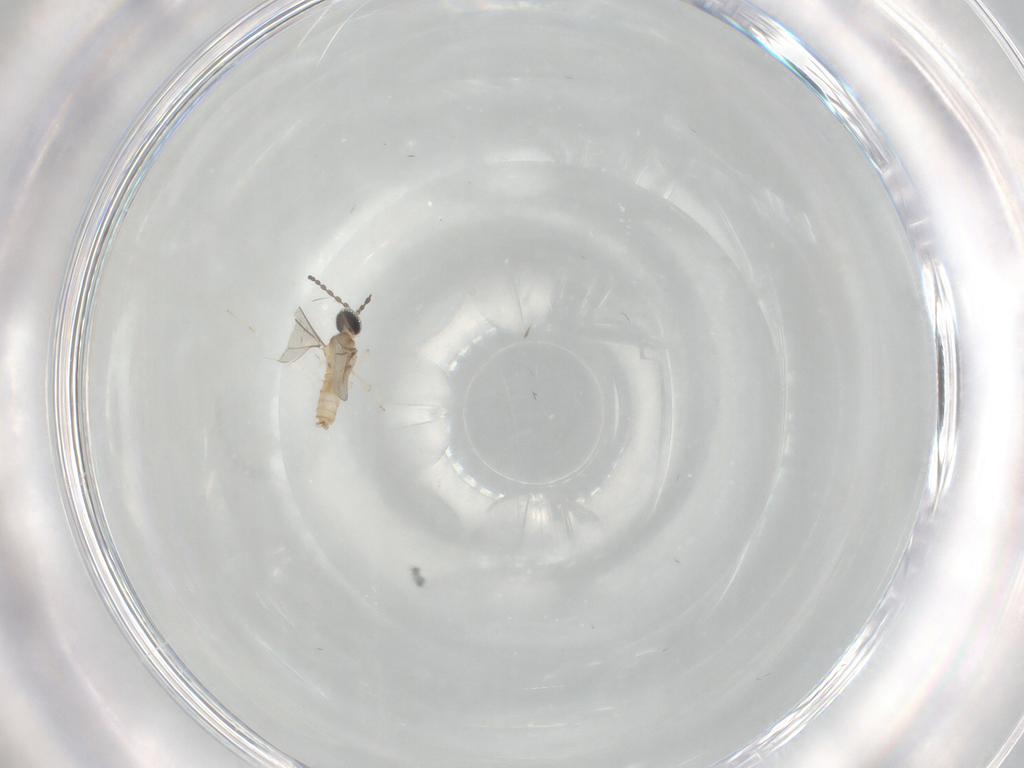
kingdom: Animalia
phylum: Arthropoda
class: Insecta
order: Diptera
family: Cecidomyiidae
